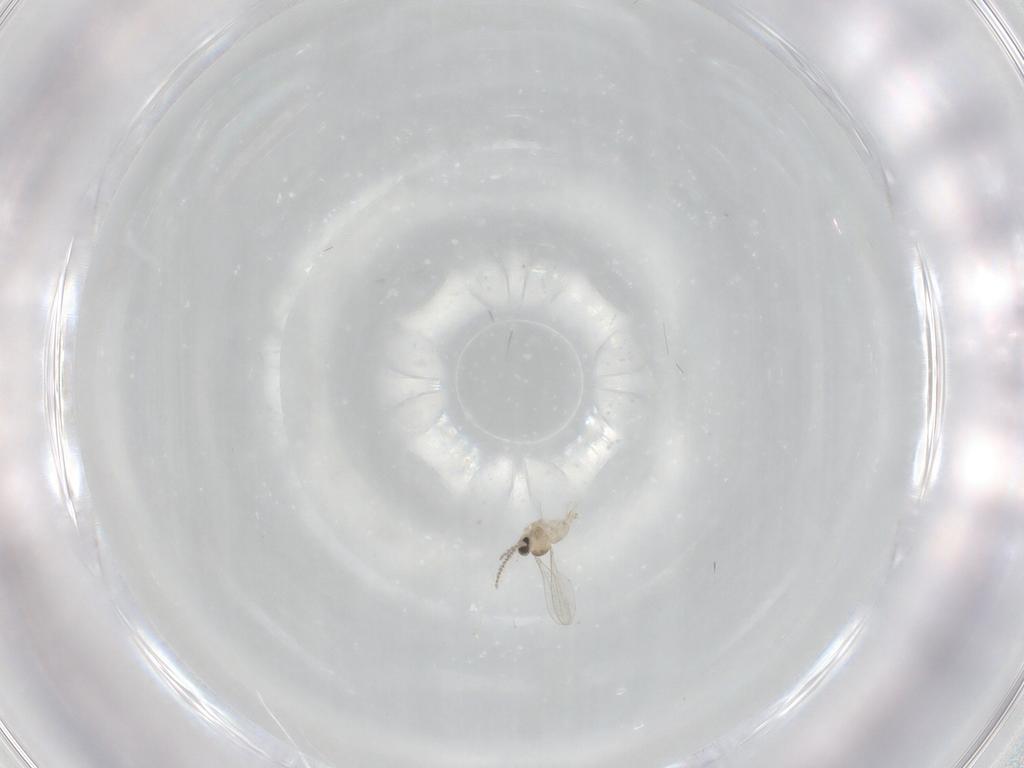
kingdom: Animalia
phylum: Arthropoda
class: Insecta
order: Diptera
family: Cecidomyiidae
